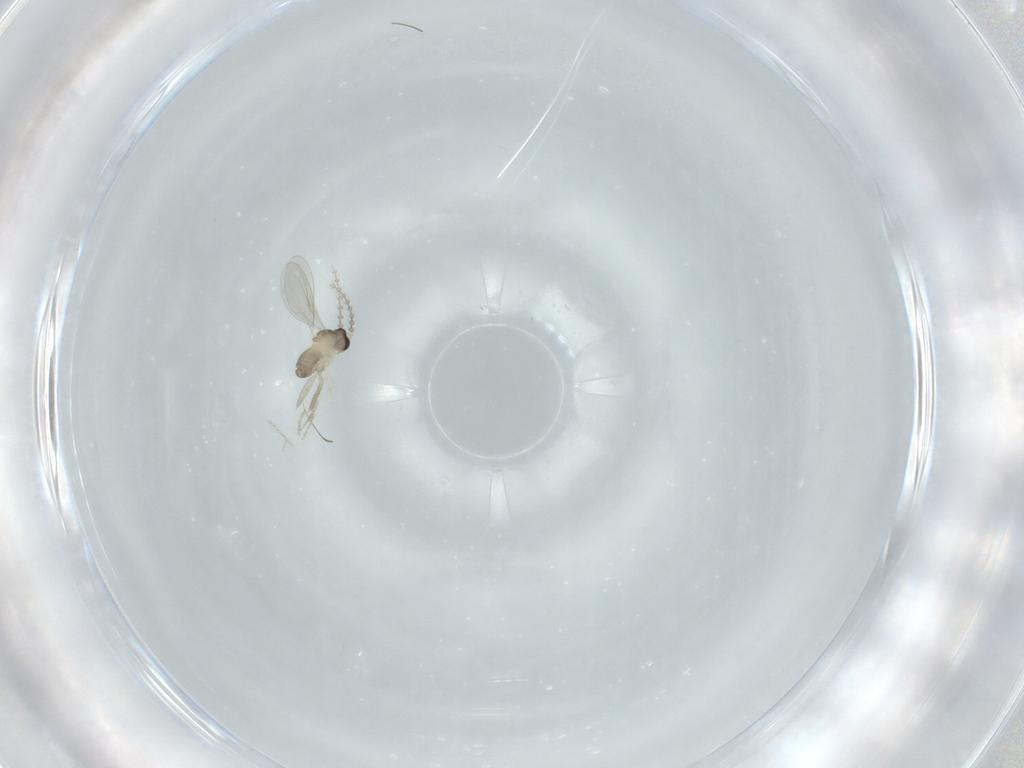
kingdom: Animalia
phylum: Arthropoda
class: Insecta
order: Diptera
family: Cecidomyiidae
